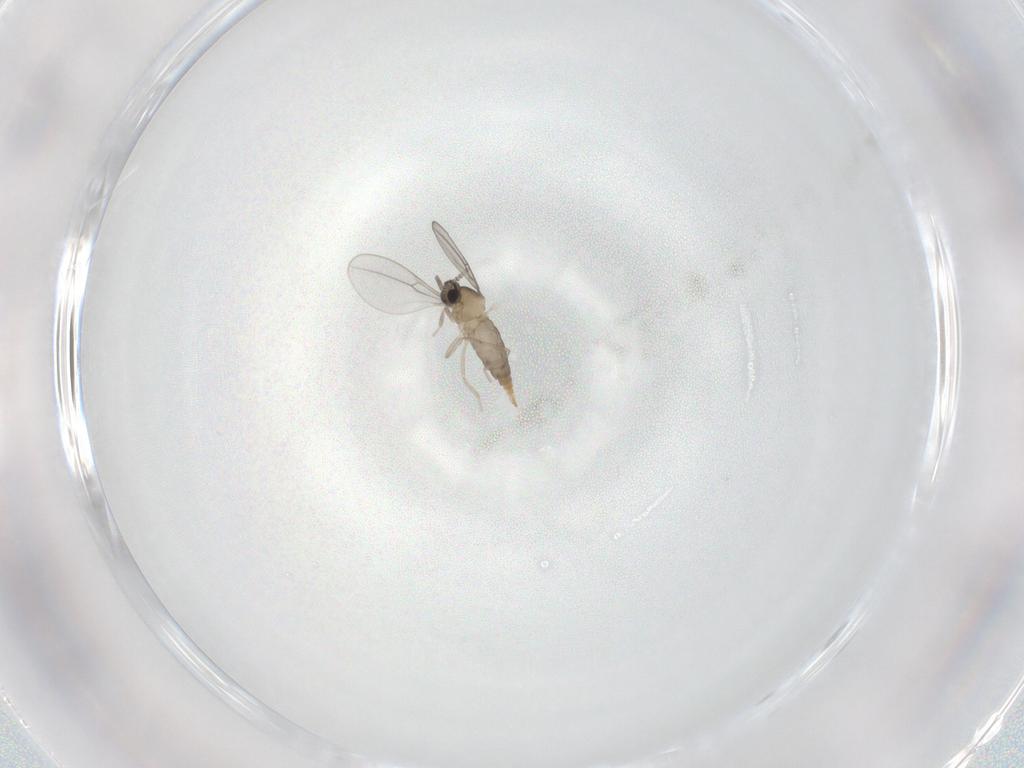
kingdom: Animalia
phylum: Arthropoda
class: Insecta
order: Diptera
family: Cecidomyiidae
